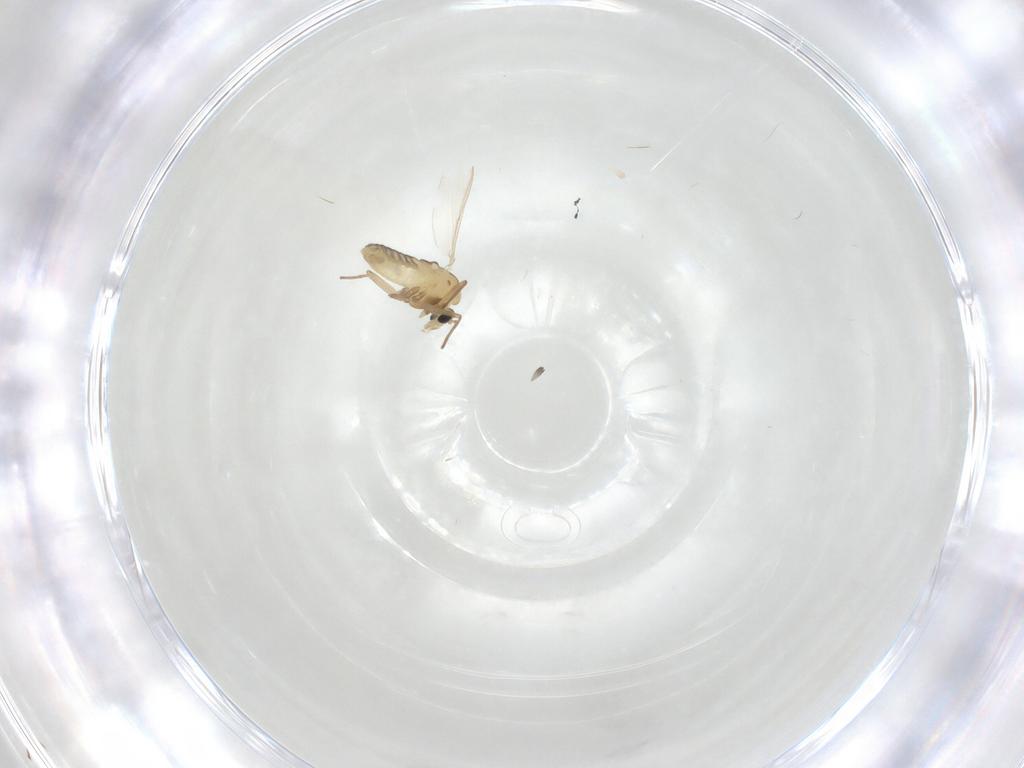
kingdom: Animalia
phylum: Arthropoda
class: Insecta
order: Diptera
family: Chironomidae
